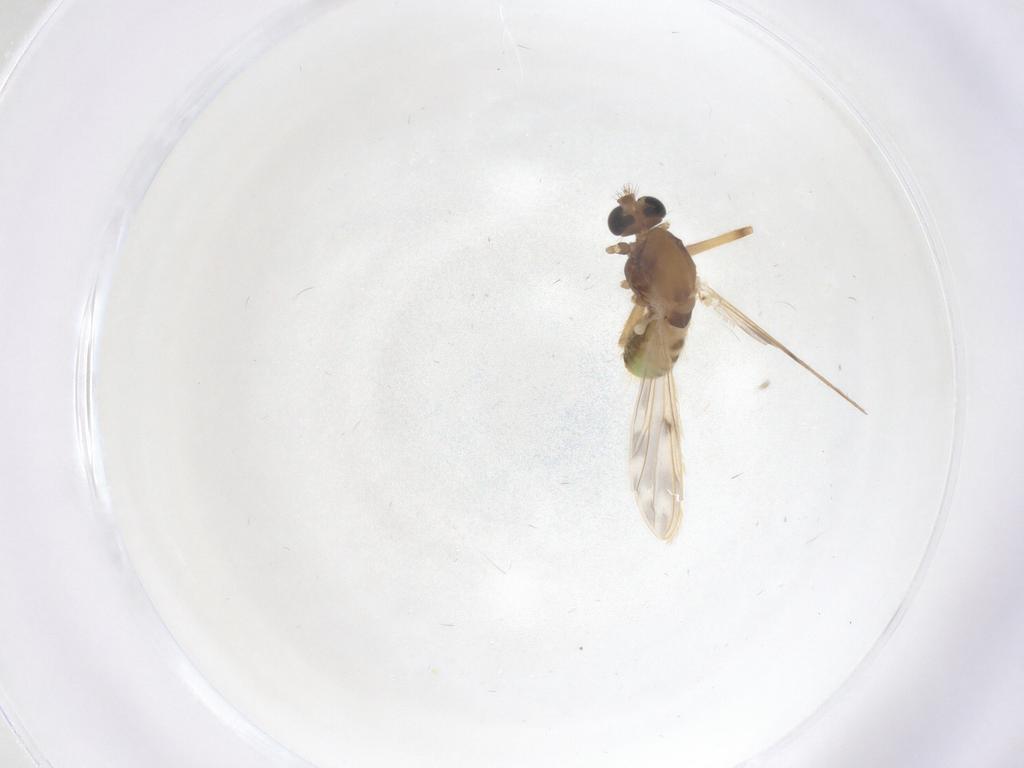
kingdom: Animalia
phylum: Arthropoda
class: Insecta
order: Diptera
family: Chironomidae
